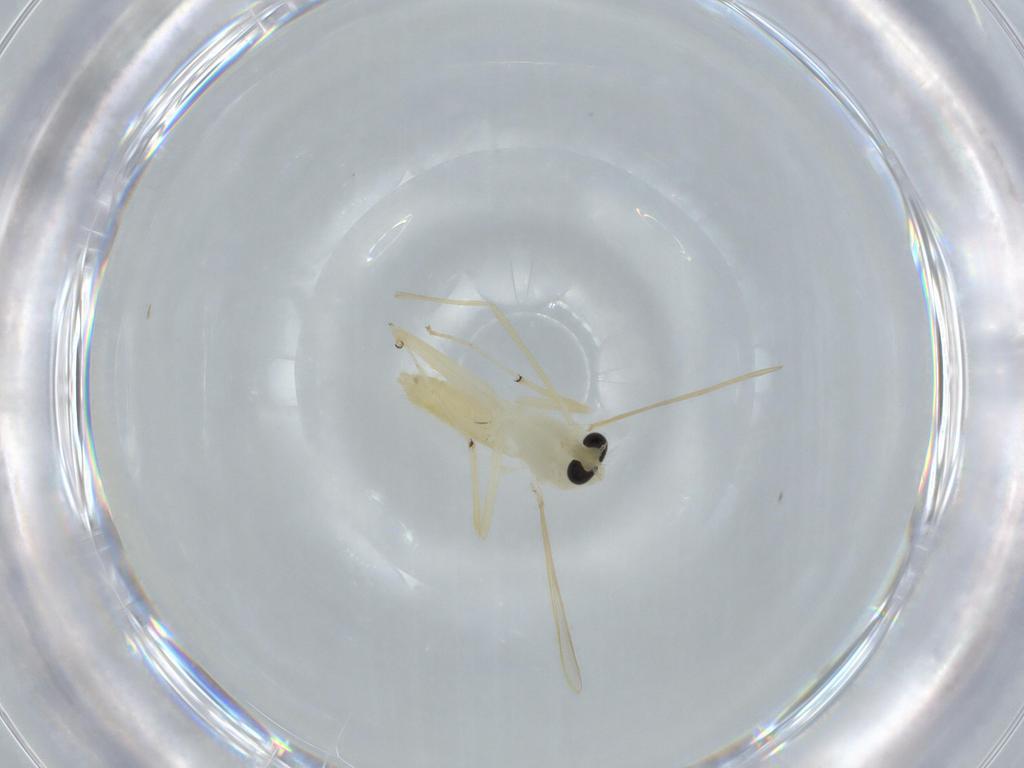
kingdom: Animalia
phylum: Arthropoda
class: Insecta
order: Diptera
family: Chironomidae
